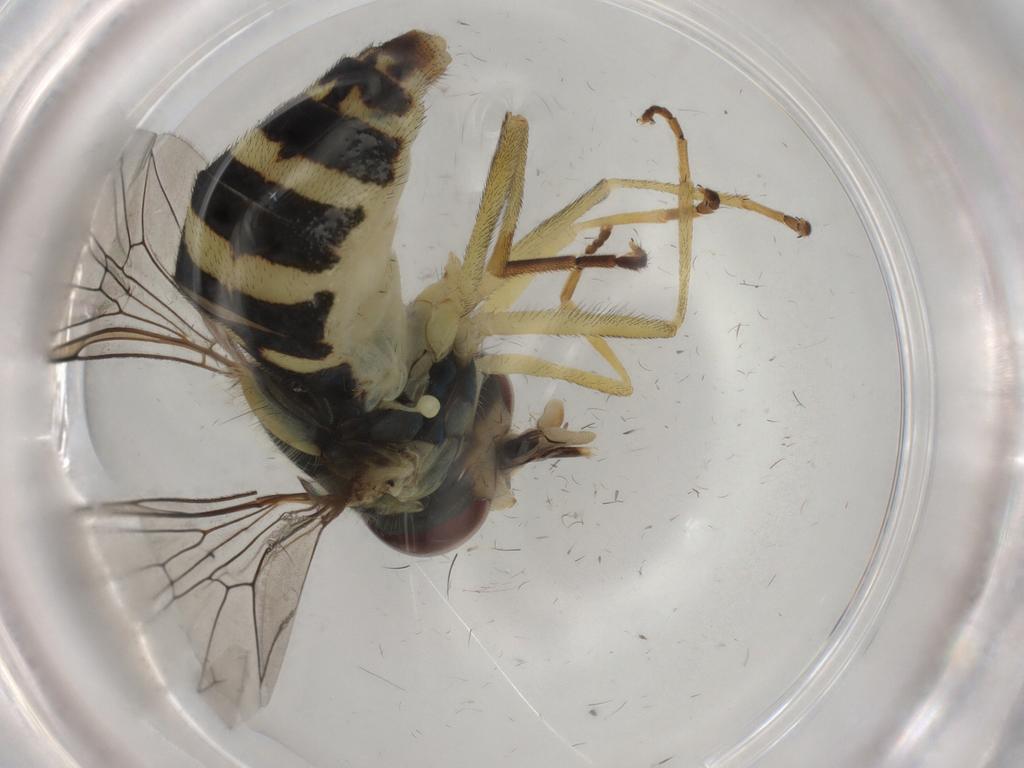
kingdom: Animalia
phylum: Arthropoda
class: Insecta
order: Diptera
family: Syrphidae
